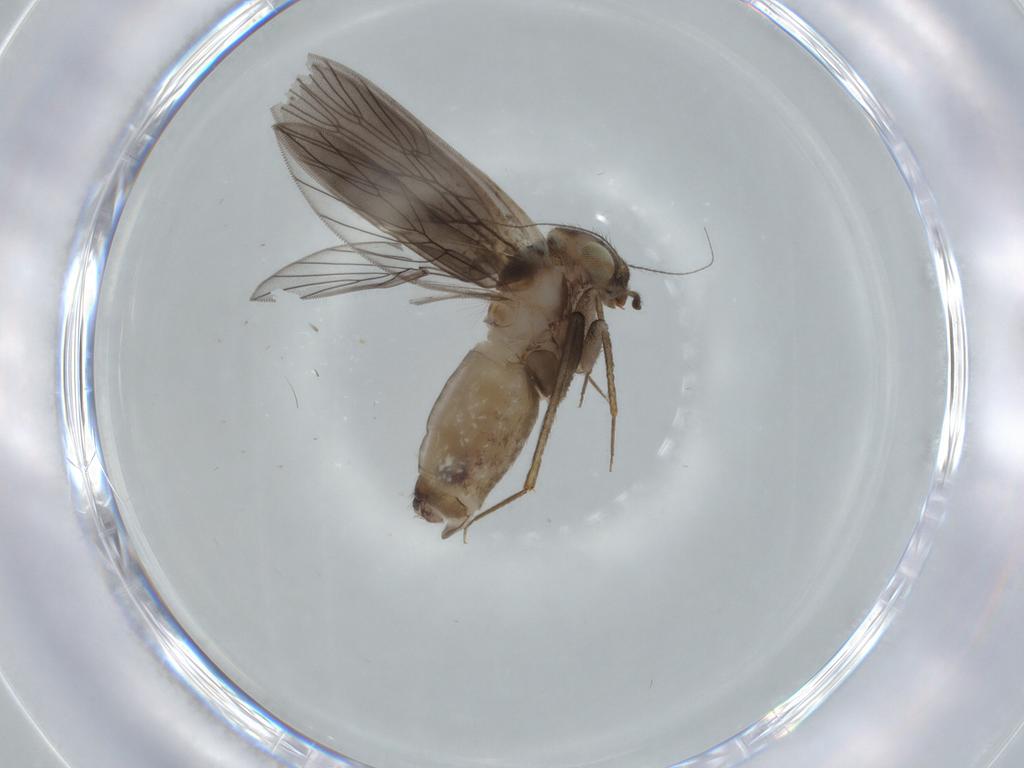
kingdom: Animalia
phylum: Arthropoda
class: Insecta
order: Psocodea
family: Lepidopsocidae
